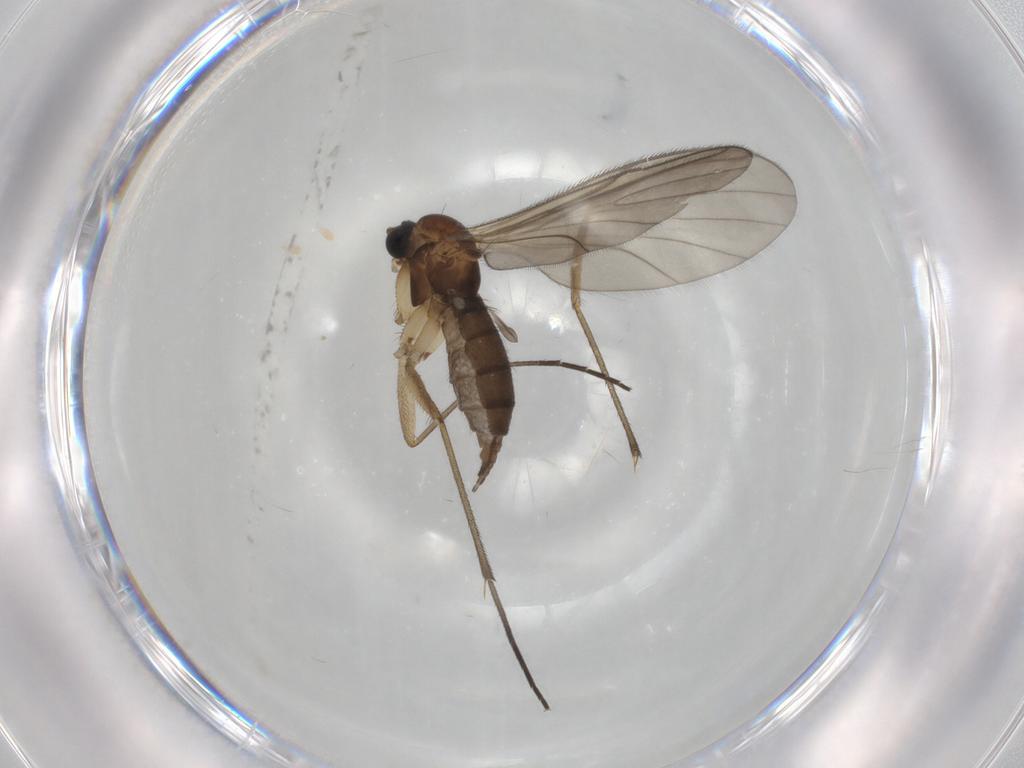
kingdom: Animalia
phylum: Arthropoda
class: Insecta
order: Diptera
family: Sciaridae
